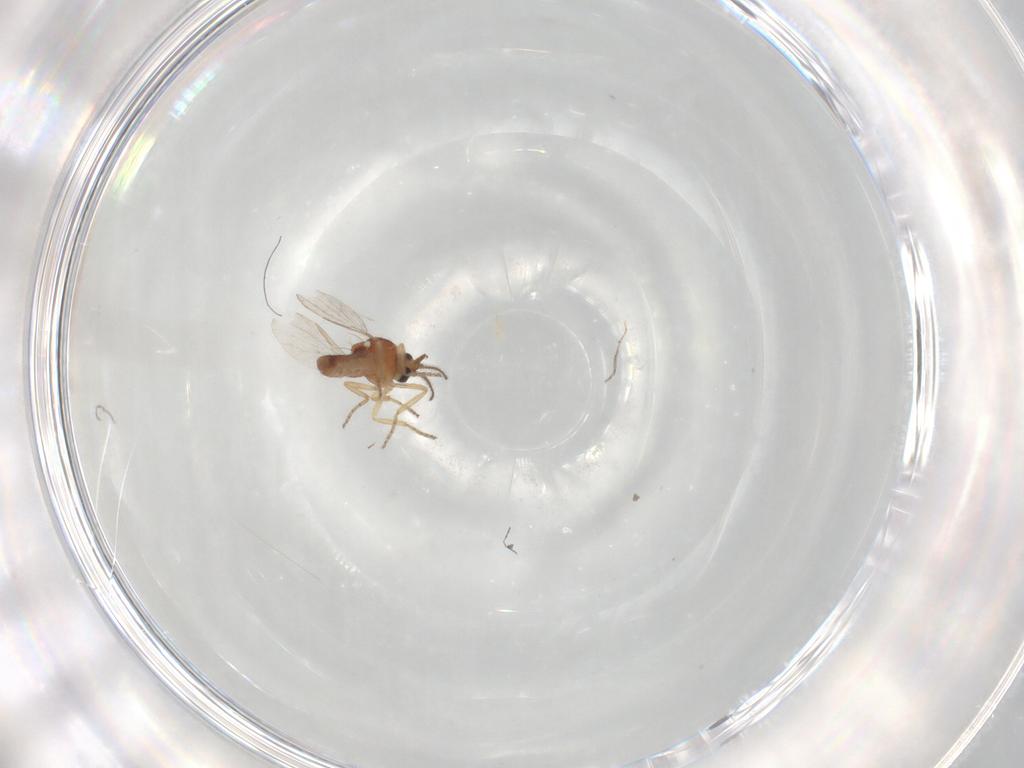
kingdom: Animalia
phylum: Arthropoda
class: Insecta
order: Diptera
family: Ceratopogonidae
